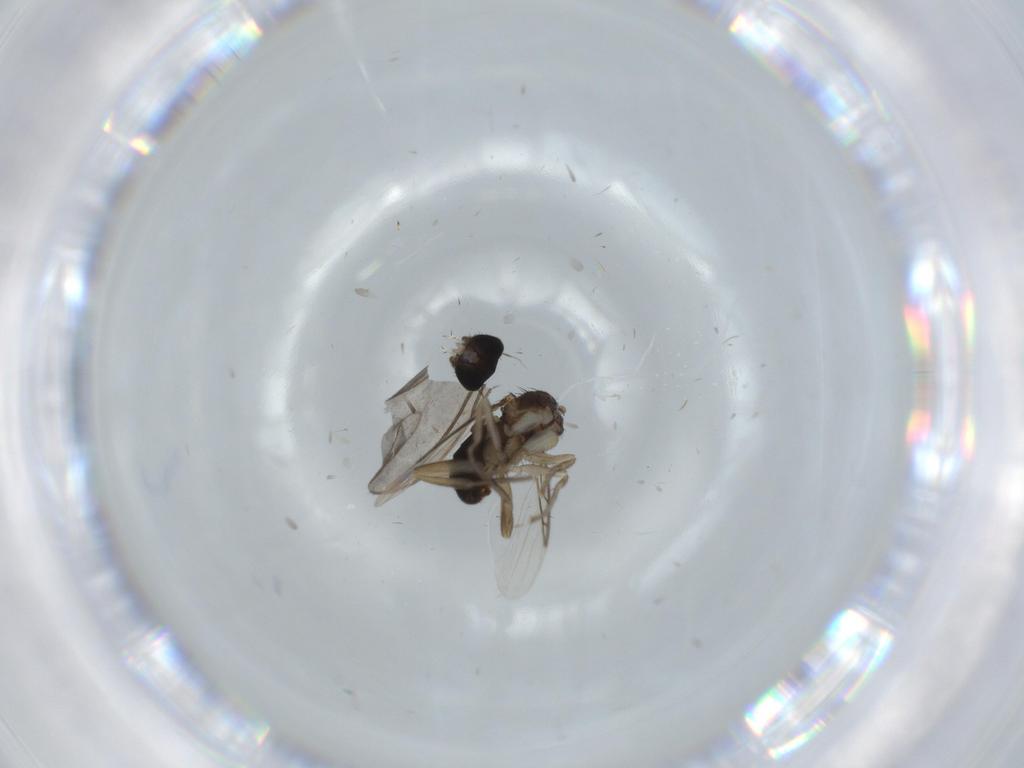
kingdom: Animalia
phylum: Arthropoda
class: Insecta
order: Diptera
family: Phoridae
